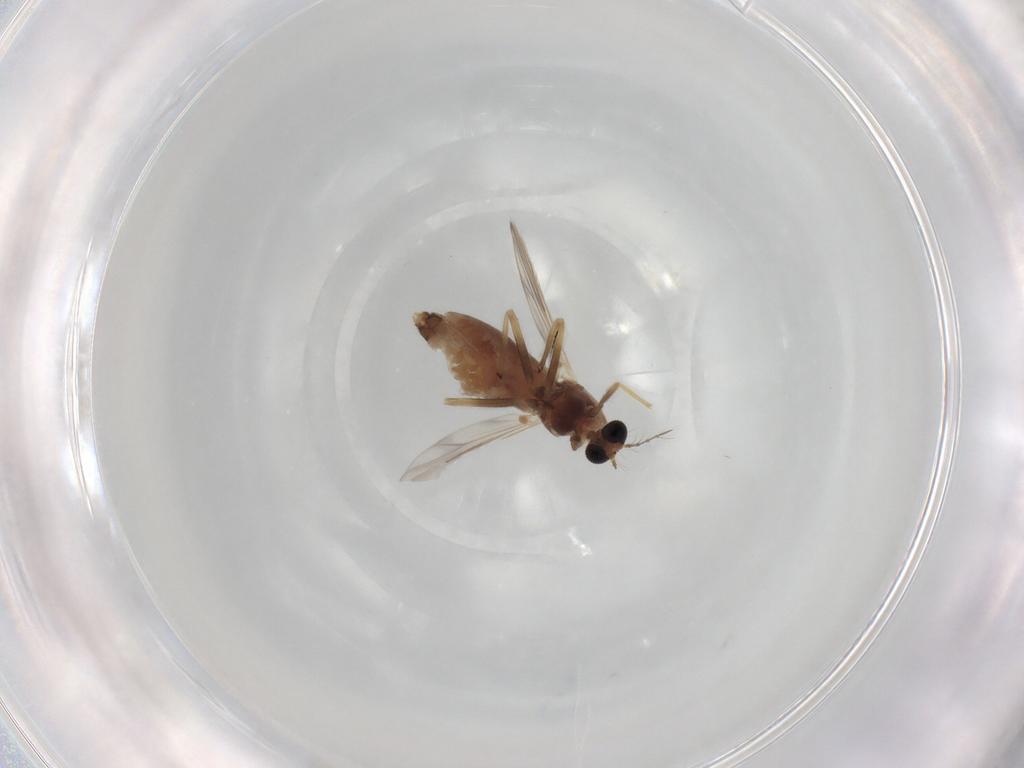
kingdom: Animalia
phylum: Arthropoda
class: Insecta
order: Diptera
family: Chironomidae
